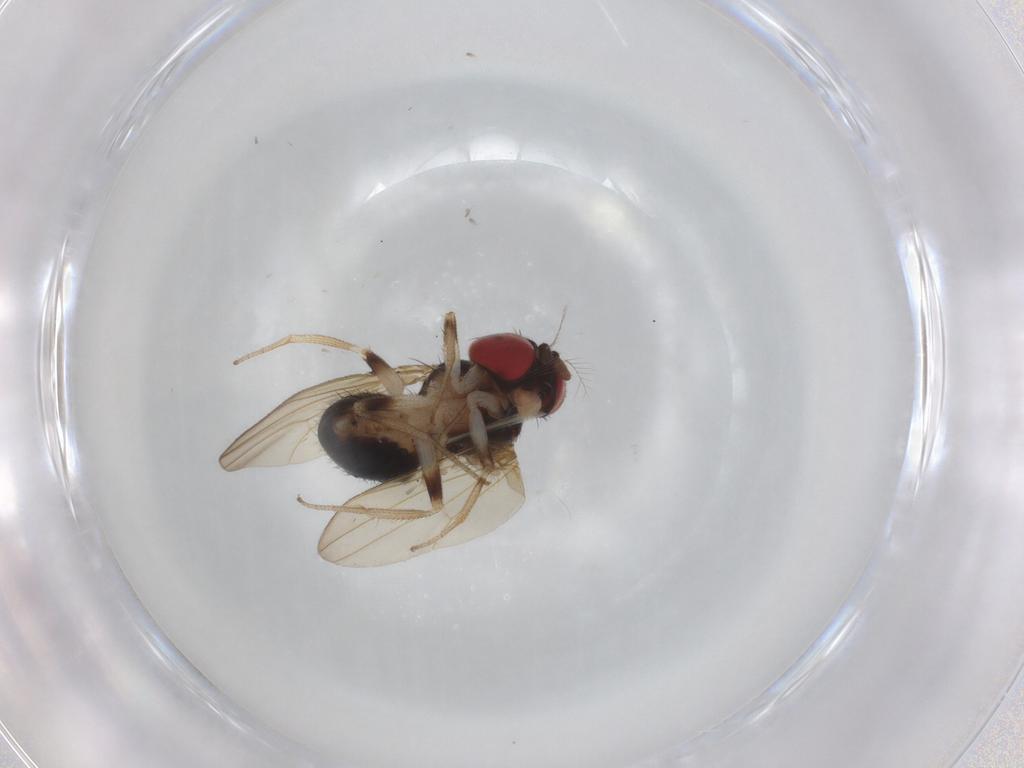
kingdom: Animalia
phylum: Arthropoda
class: Insecta
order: Diptera
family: Drosophilidae
